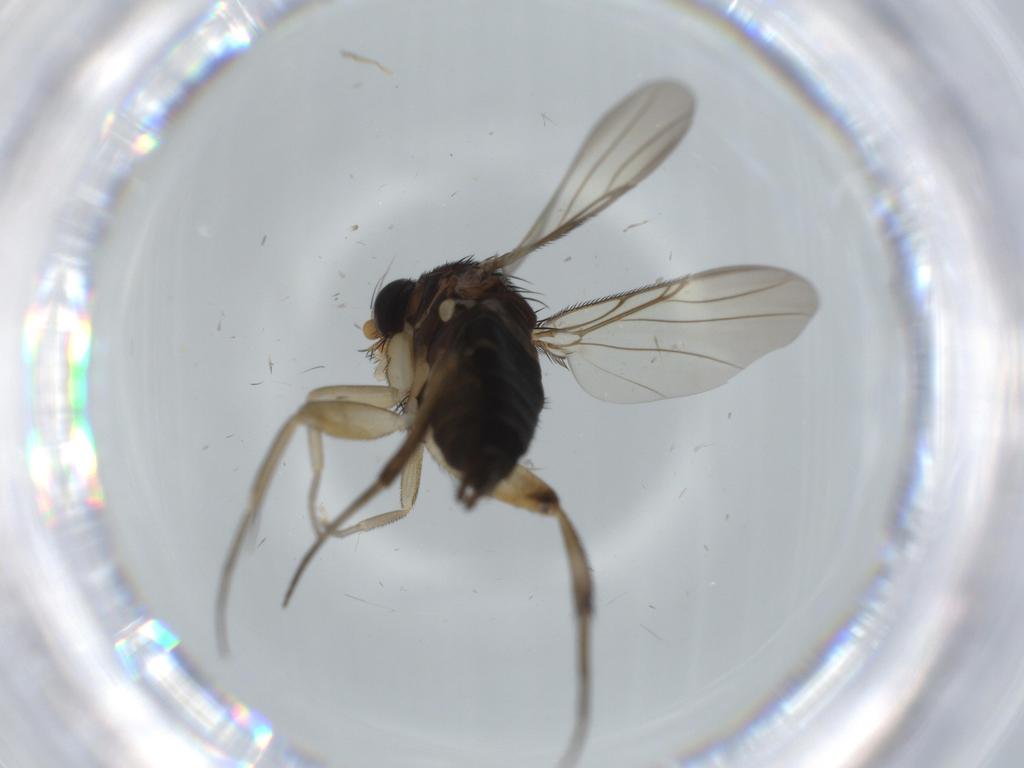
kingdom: Animalia
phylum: Arthropoda
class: Insecta
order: Diptera
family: Phoridae
